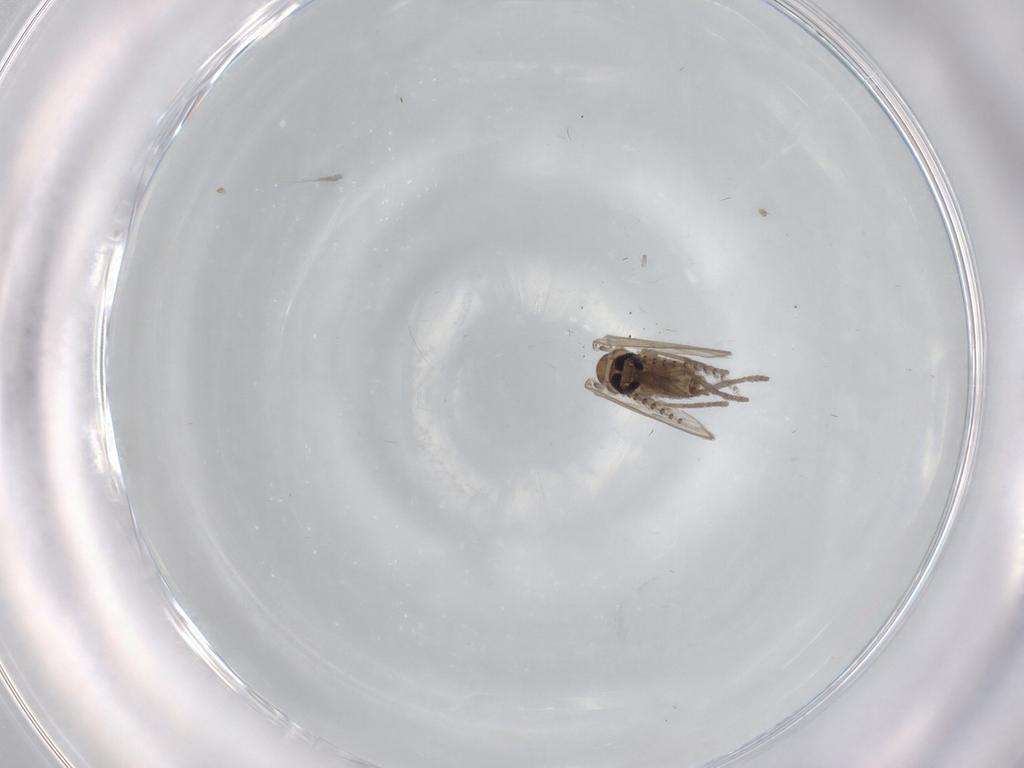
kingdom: Animalia
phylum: Arthropoda
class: Insecta
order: Diptera
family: Psychodidae
